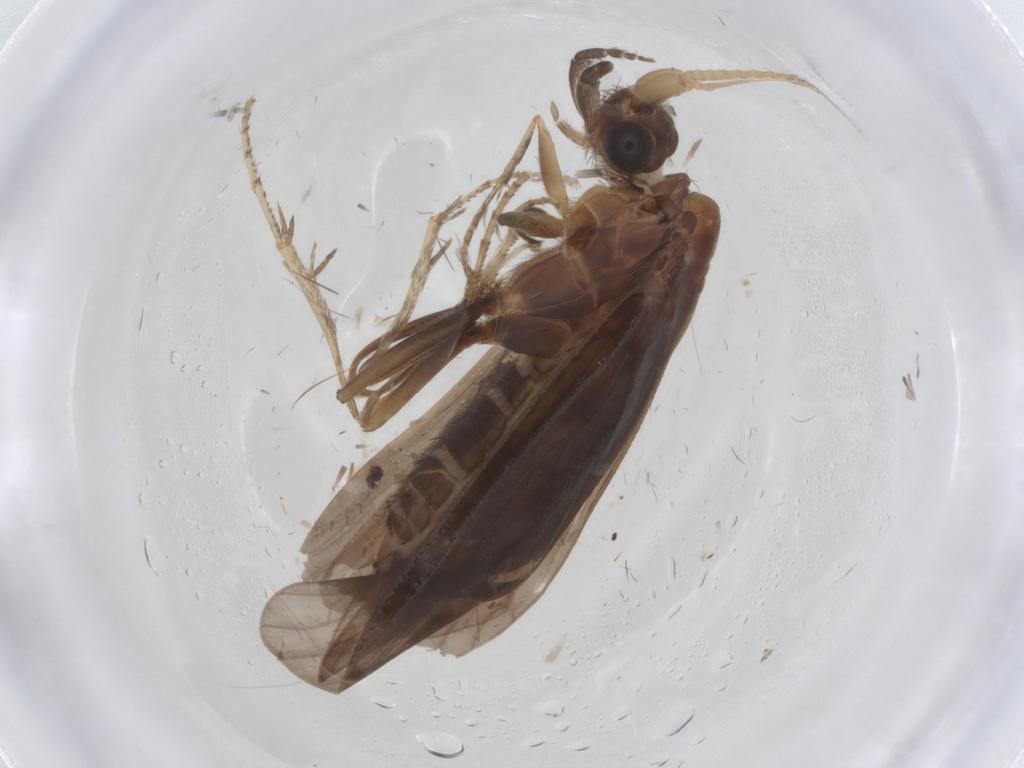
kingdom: Animalia
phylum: Arthropoda
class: Insecta
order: Trichoptera
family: Helicopsychidae
